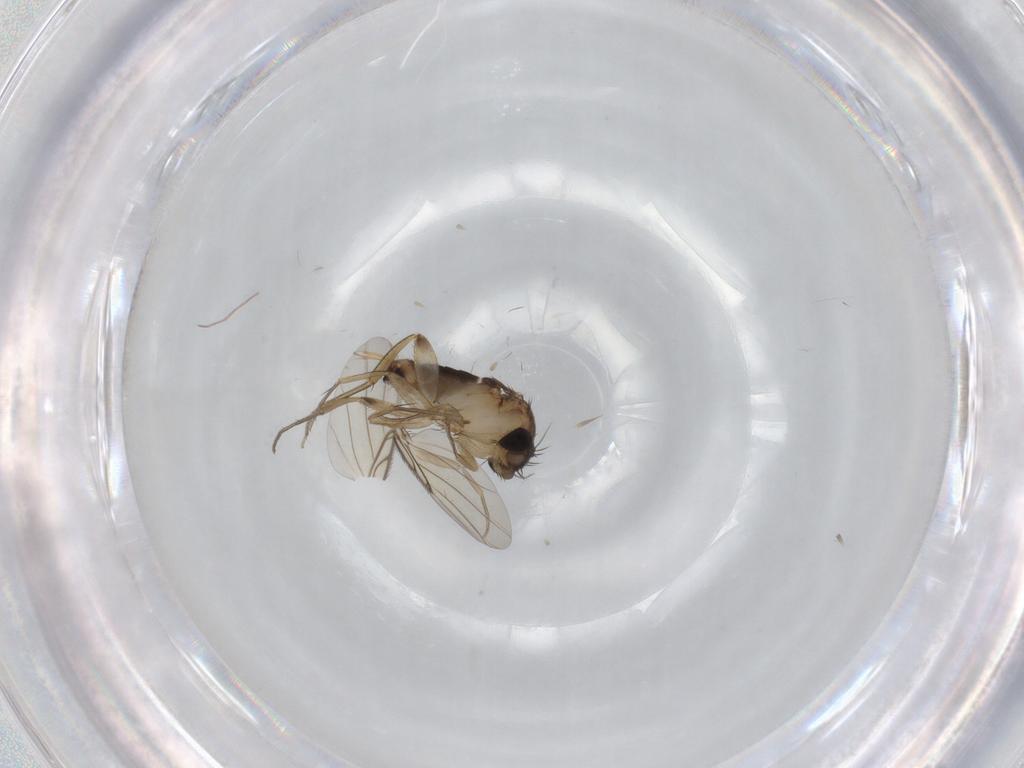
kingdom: Animalia
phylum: Arthropoda
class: Insecta
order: Diptera
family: Phoridae
